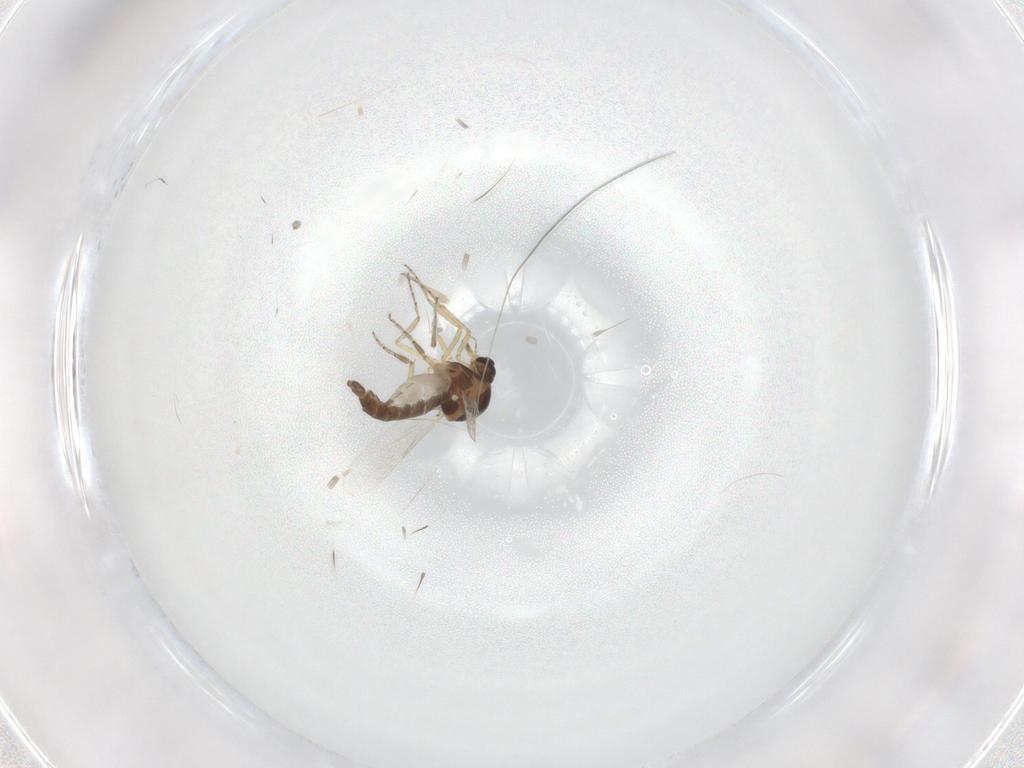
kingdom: Animalia
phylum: Arthropoda
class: Insecta
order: Diptera
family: Ceratopogonidae
